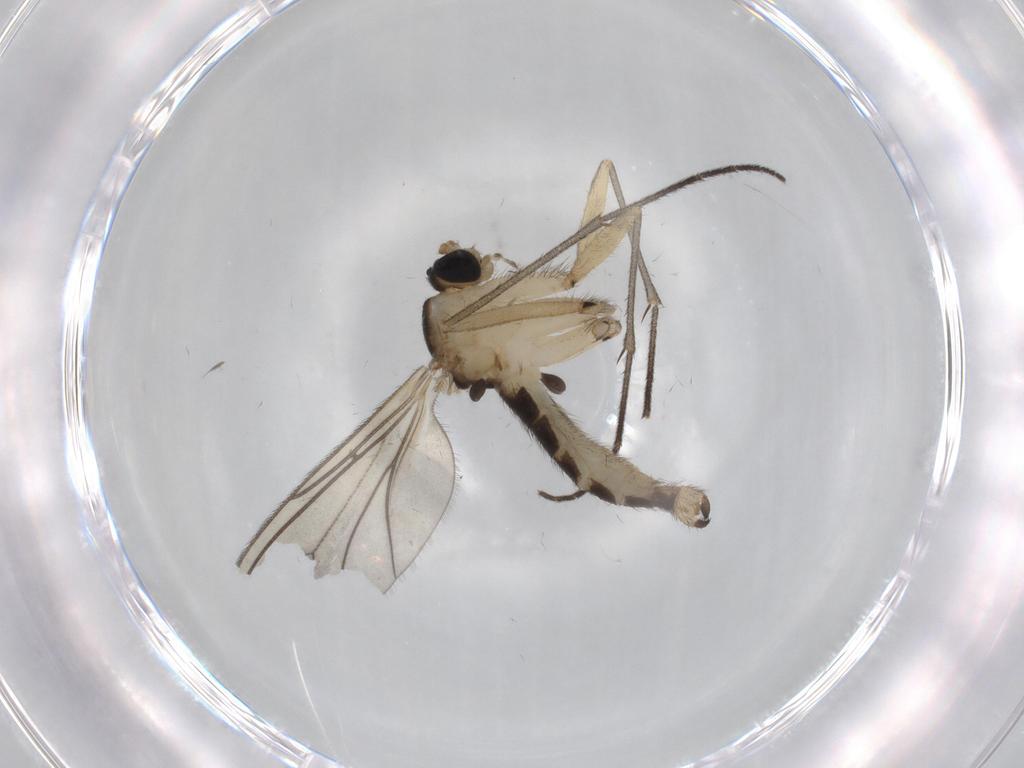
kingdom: Animalia
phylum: Arthropoda
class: Insecta
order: Diptera
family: Sciaridae
